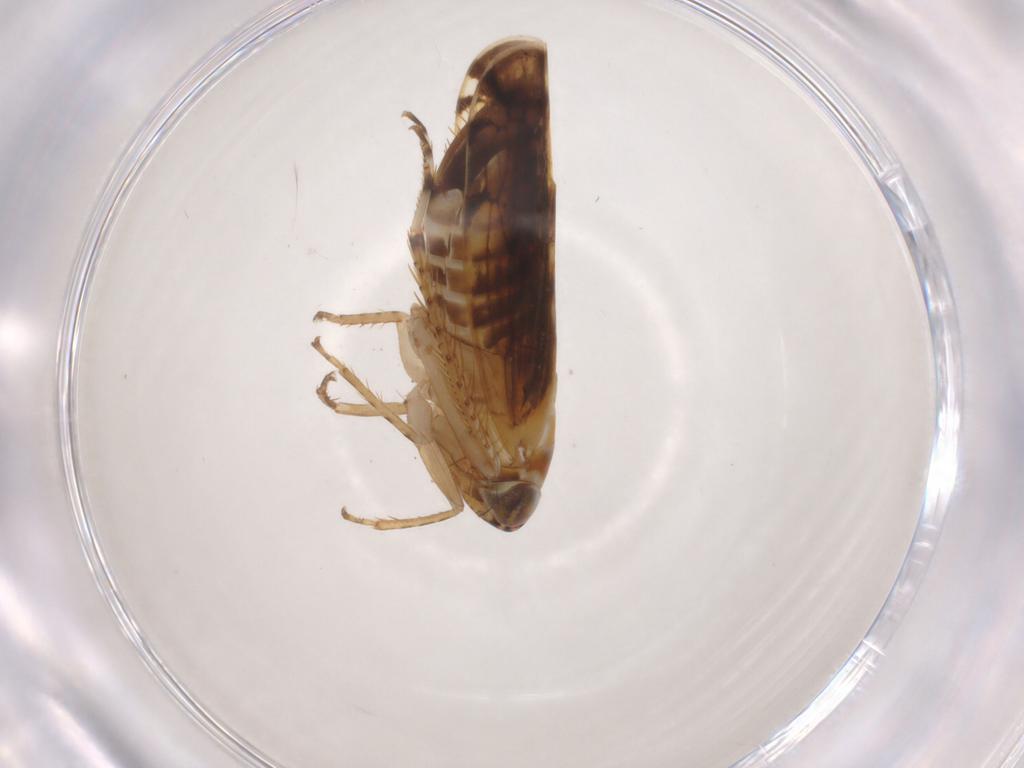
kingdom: Animalia
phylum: Arthropoda
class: Insecta
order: Hemiptera
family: Cicadellidae
